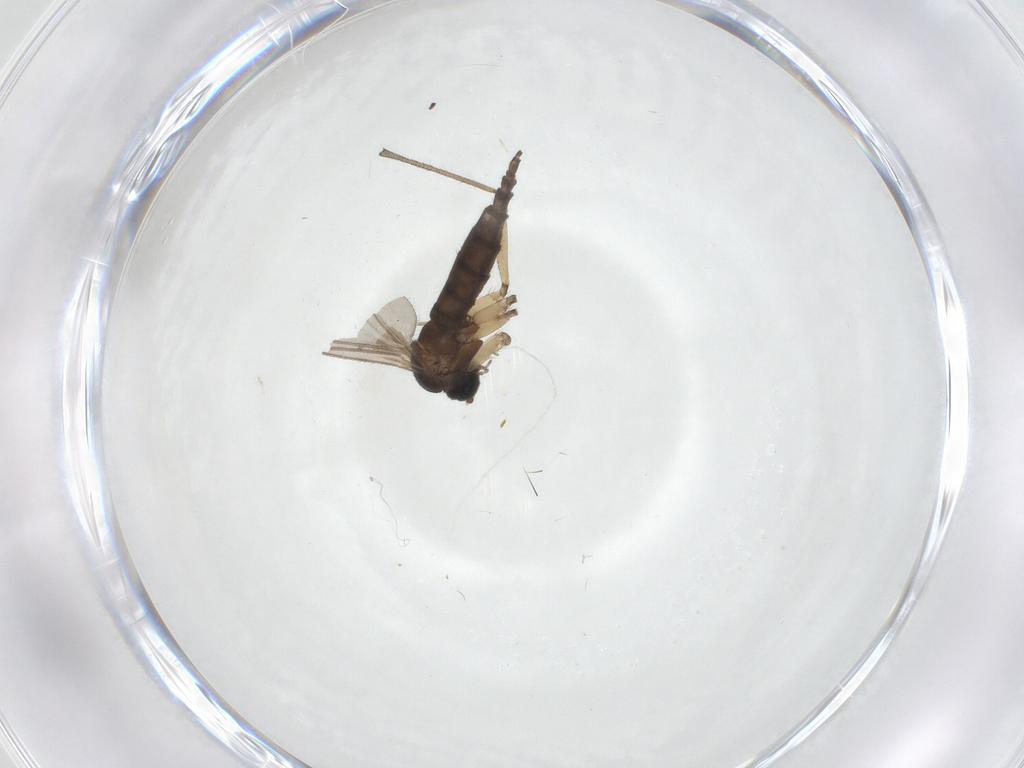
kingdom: Animalia
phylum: Arthropoda
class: Insecta
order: Diptera
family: Sciaridae
